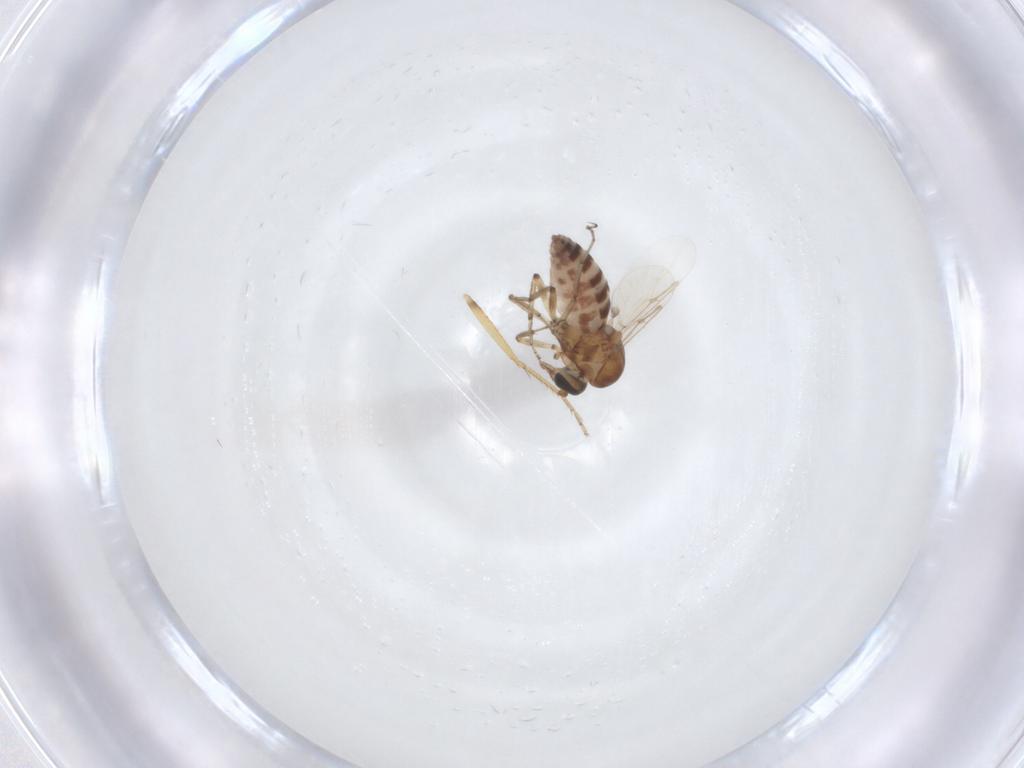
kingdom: Animalia
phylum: Arthropoda
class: Insecta
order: Diptera
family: Ceratopogonidae
